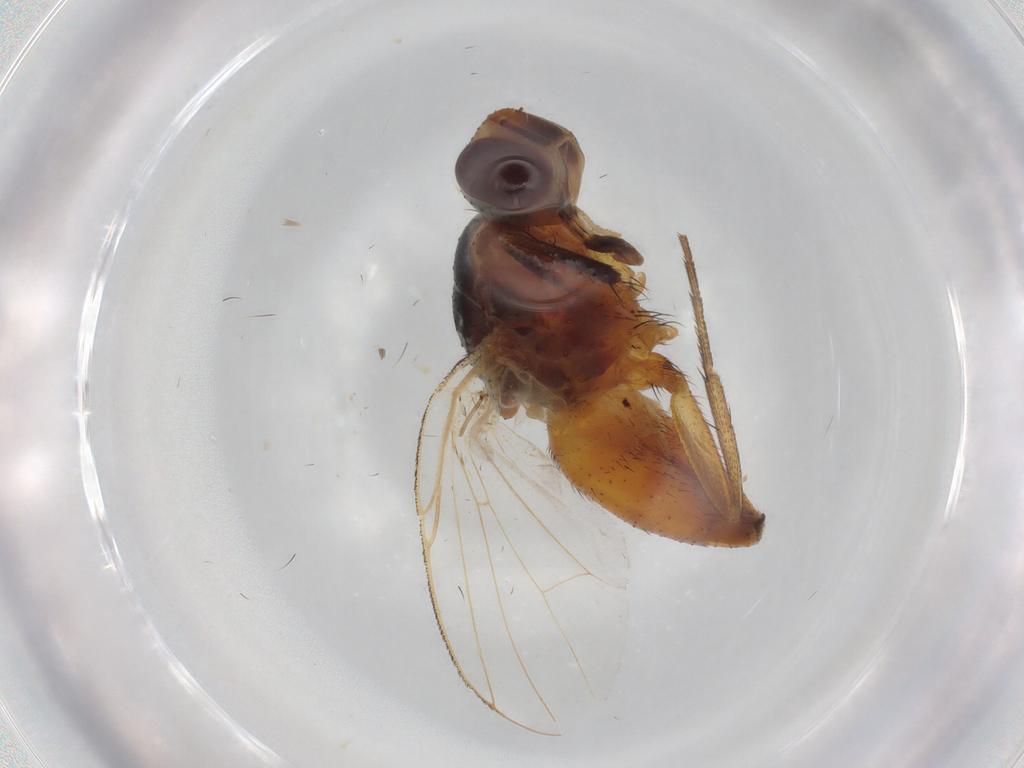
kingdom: Animalia
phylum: Arthropoda
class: Insecta
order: Diptera
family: Cecidomyiidae
